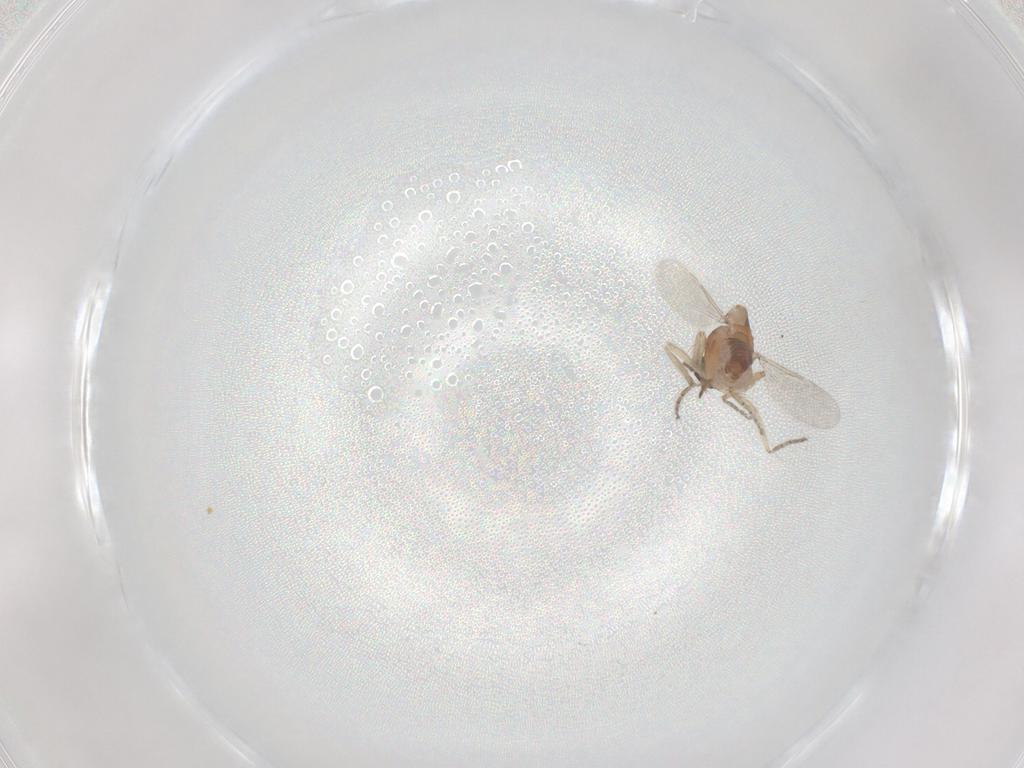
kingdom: Animalia
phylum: Arthropoda
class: Insecta
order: Diptera
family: Ceratopogonidae
